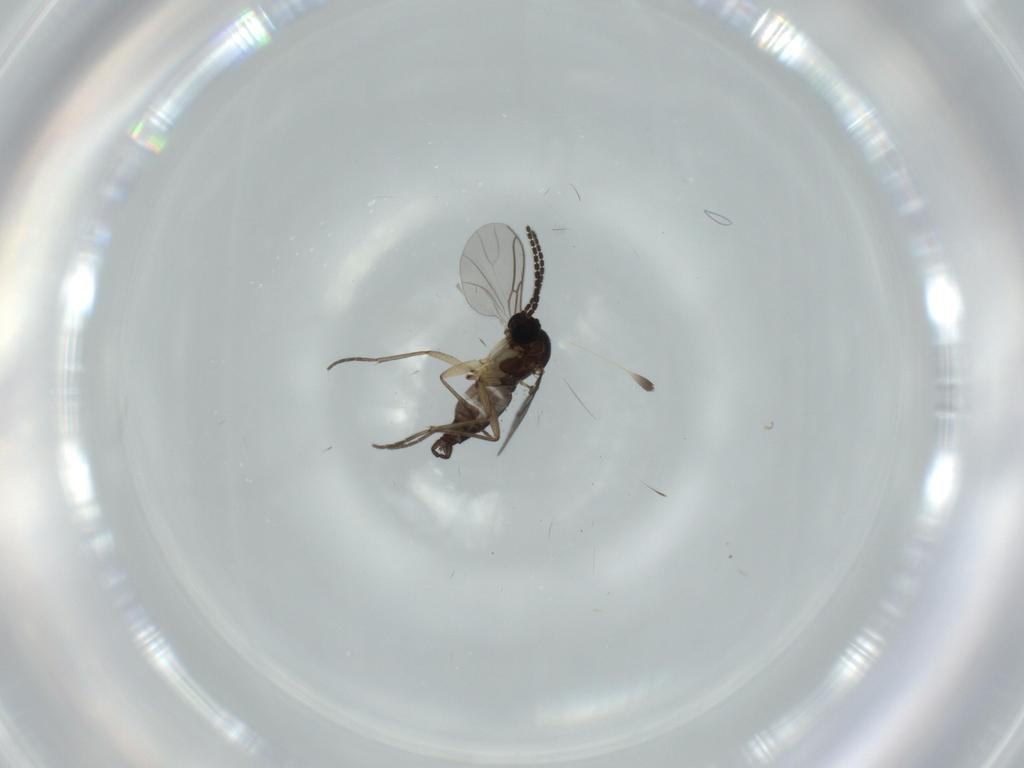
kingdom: Animalia
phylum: Arthropoda
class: Insecta
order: Diptera
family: Sciaridae
